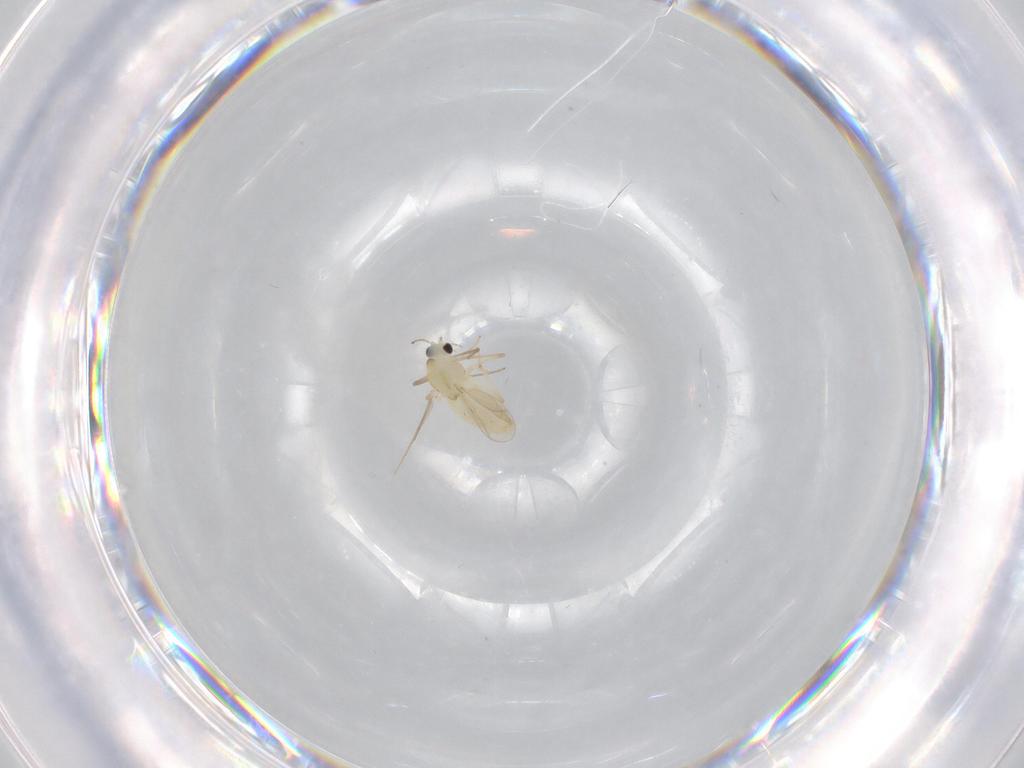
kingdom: Animalia
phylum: Arthropoda
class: Insecta
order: Diptera
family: Chironomidae
